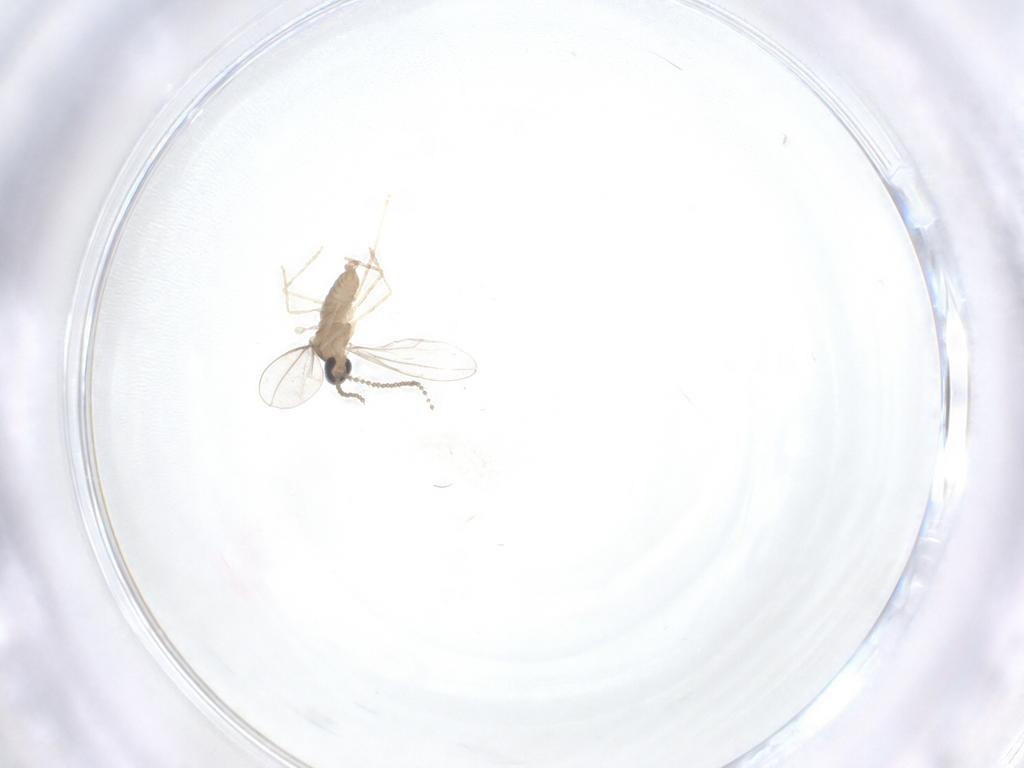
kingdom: Animalia
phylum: Arthropoda
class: Insecta
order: Diptera
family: Cecidomyiidae
